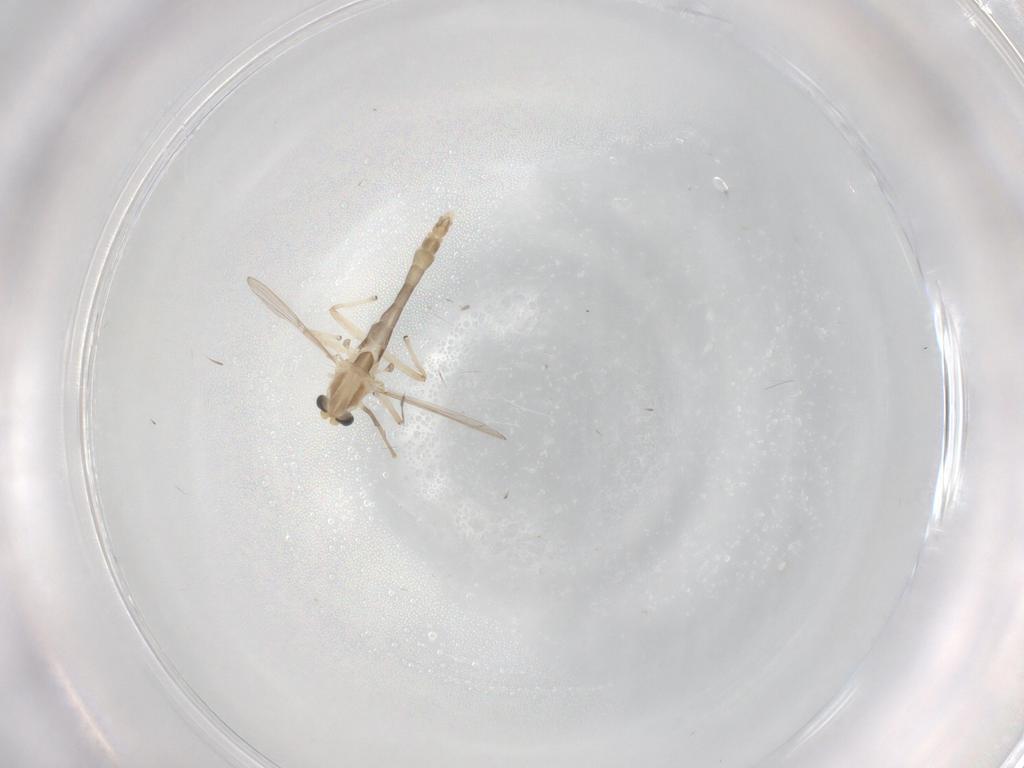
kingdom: Animalia
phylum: Arthropoda
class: Insecta
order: Diptera
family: Chironomidae
